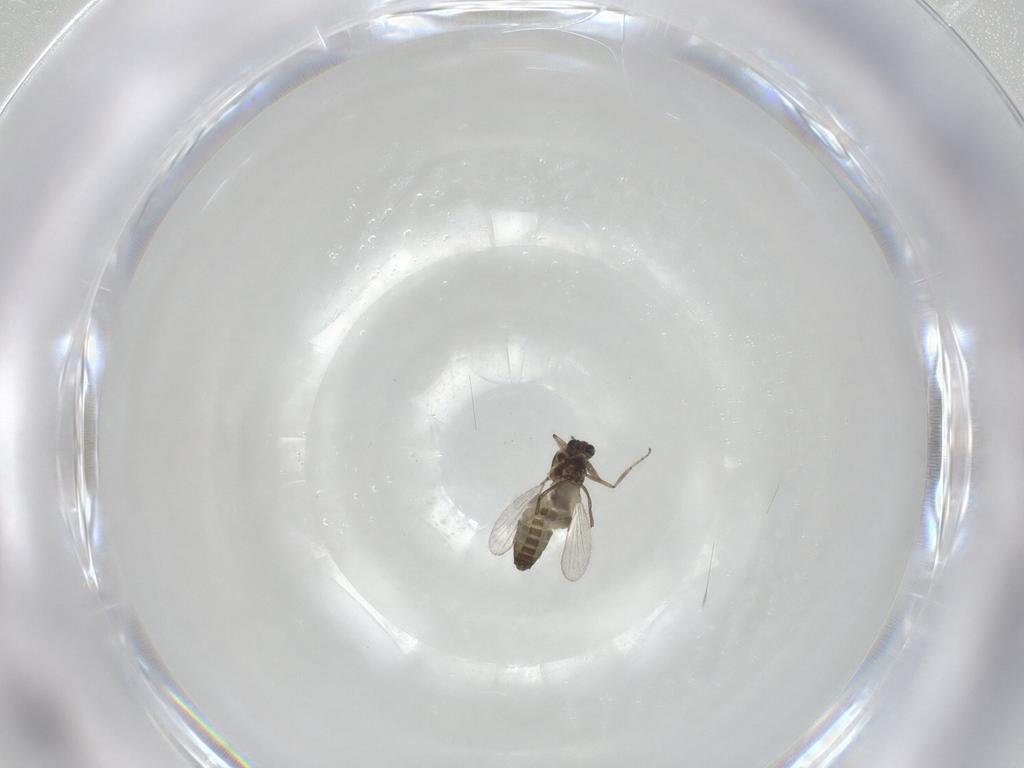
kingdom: Animalia
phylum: Arthropoda
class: Insecta
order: Diptera
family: Ceratopogonidae
